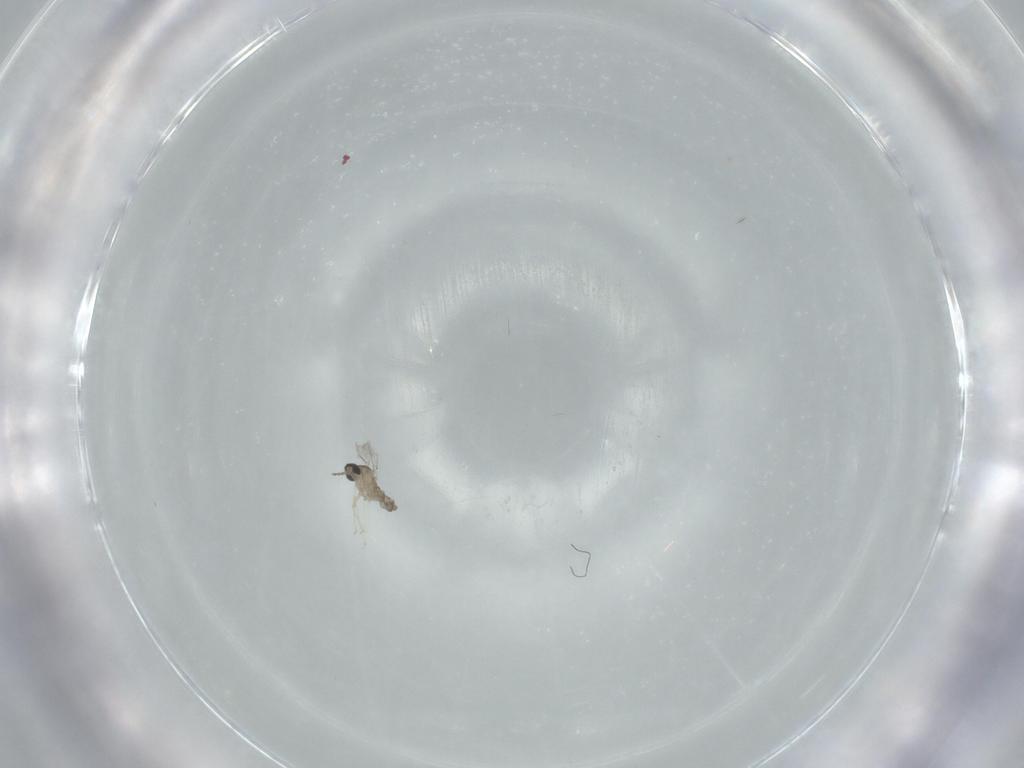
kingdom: Animalia
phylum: Arthropoda
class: Insecta
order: Diptera
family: Cecidomyiidae
